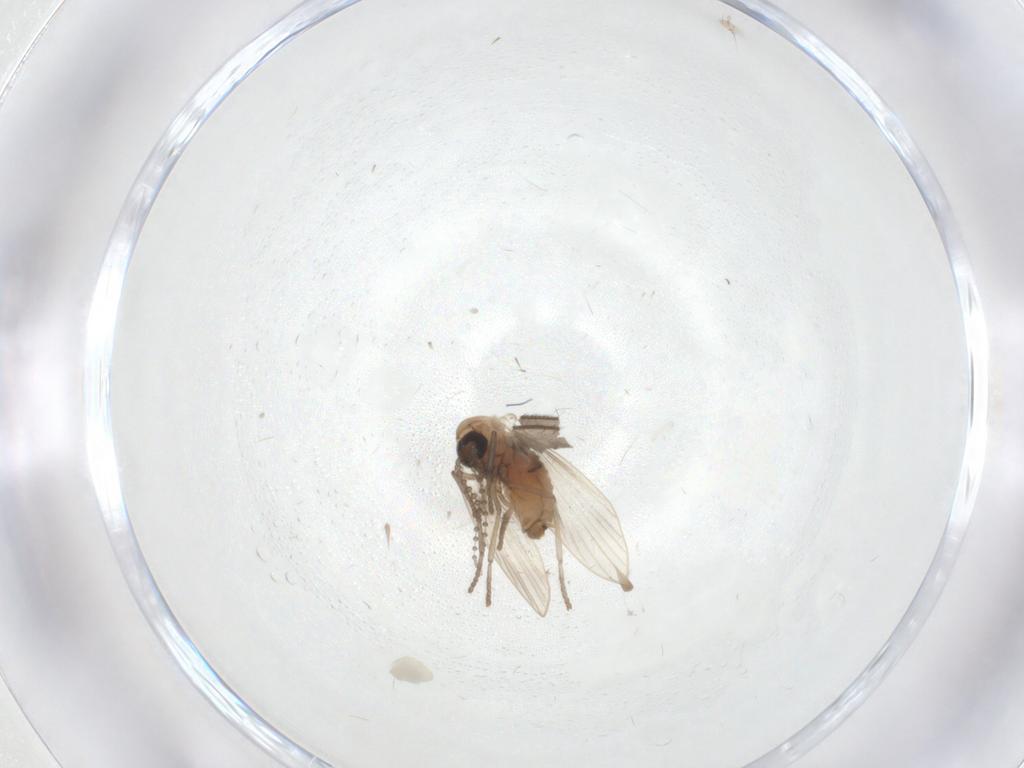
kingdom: Animalia
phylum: Arthropoda
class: Insecta
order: Diptera
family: Psychodidae
